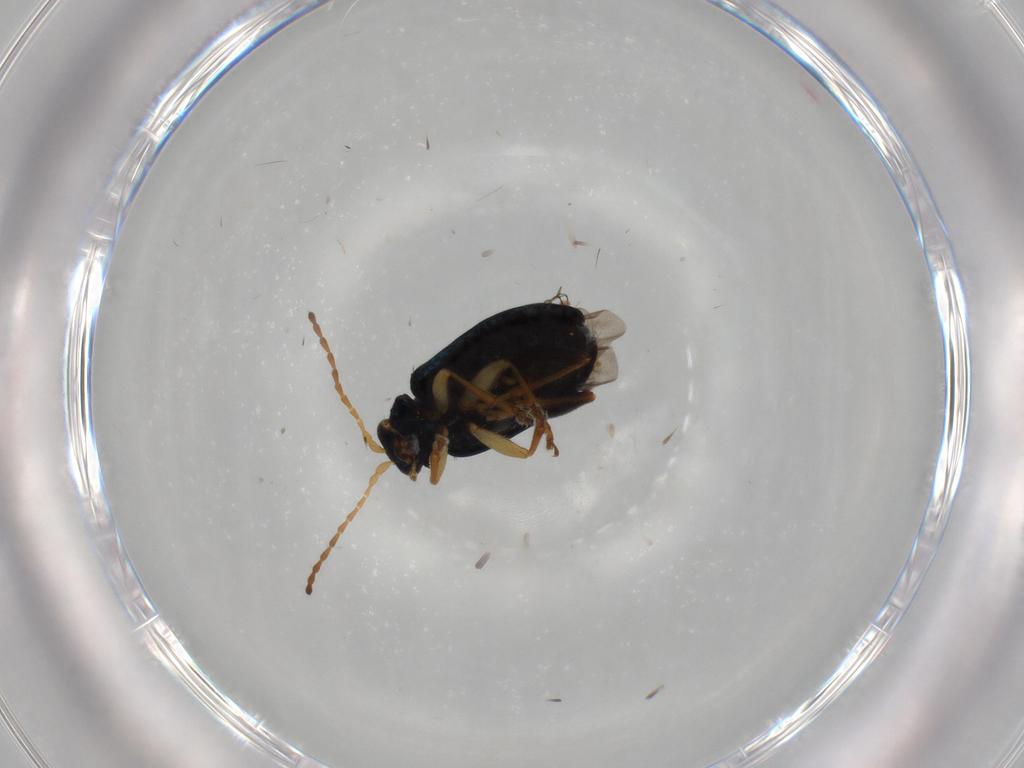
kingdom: Animalia
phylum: Arthropoda
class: Insecta
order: Coleoptera
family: Chrysomelidae
